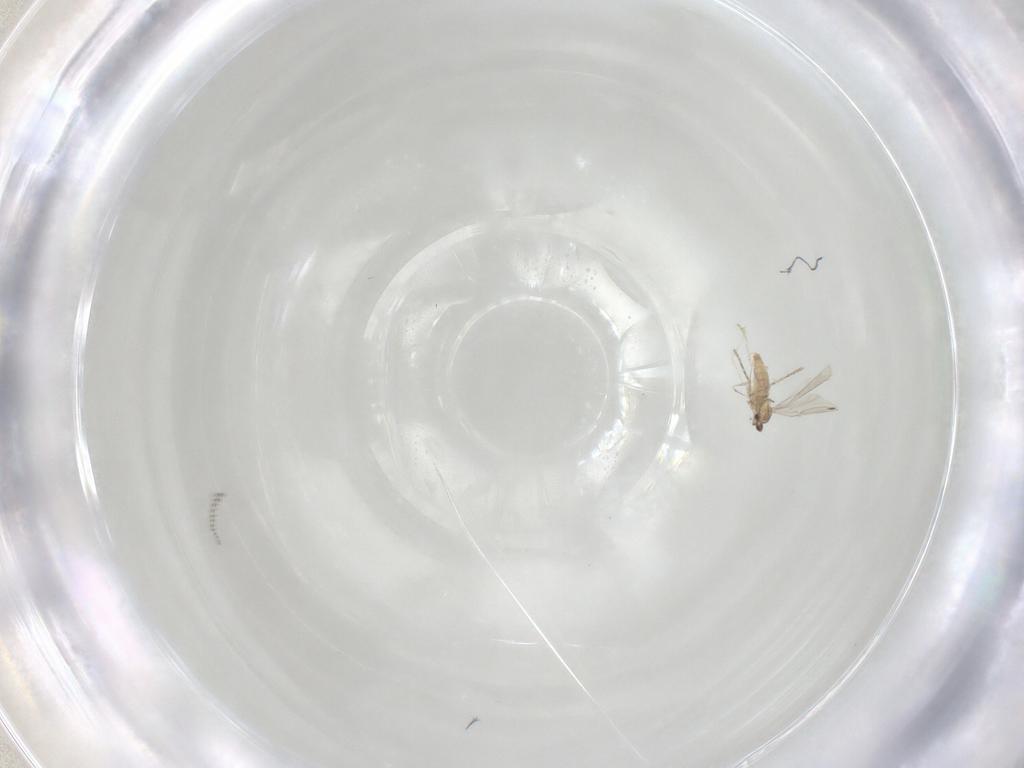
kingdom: Animalia
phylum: Arthropoda
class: Insecta
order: Diptera
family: Cecidomyiidae
